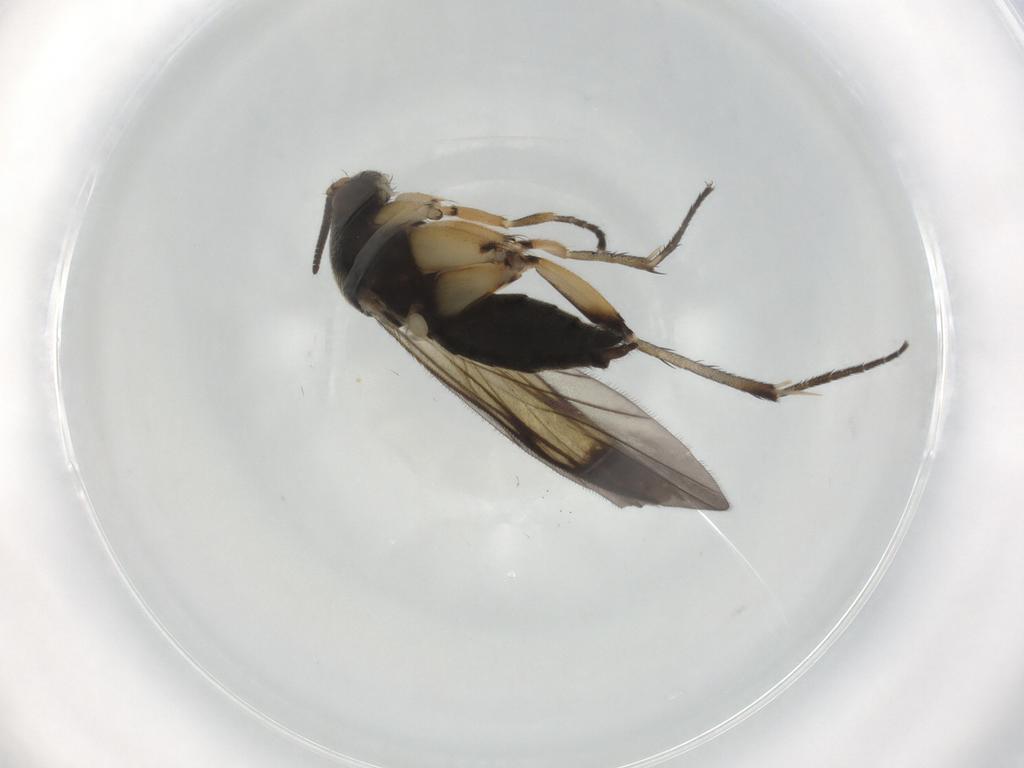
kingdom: Animalia
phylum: Arthropoda
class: Insecta
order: Diptera
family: Mycetophilidae
